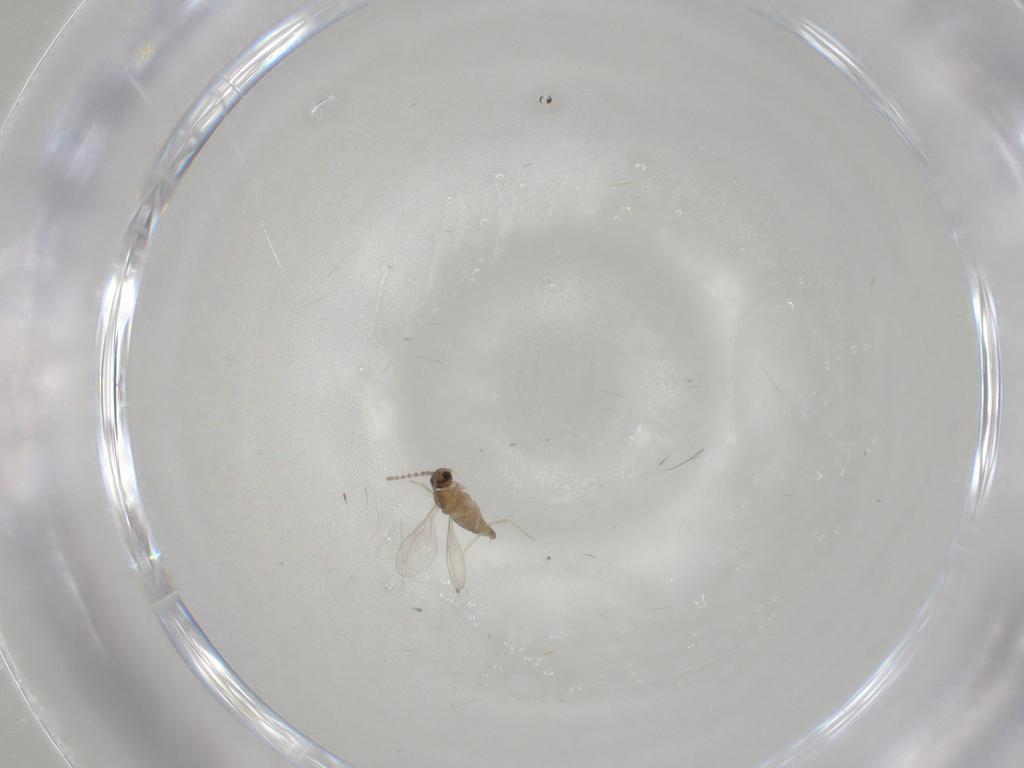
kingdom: Animalia
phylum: Arthropoda
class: Insecta
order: Diptera
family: Cecidomyiidae
